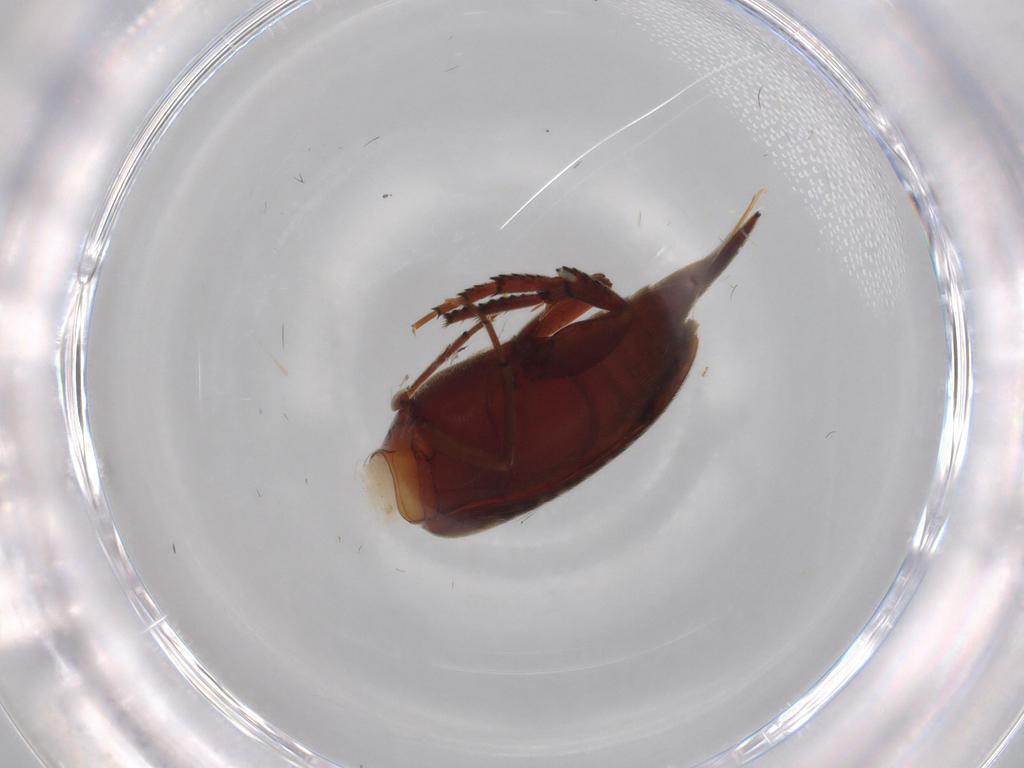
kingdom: Animalia
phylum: Arthropoda
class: Insecta
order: Coleoptera
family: Mordellidae
